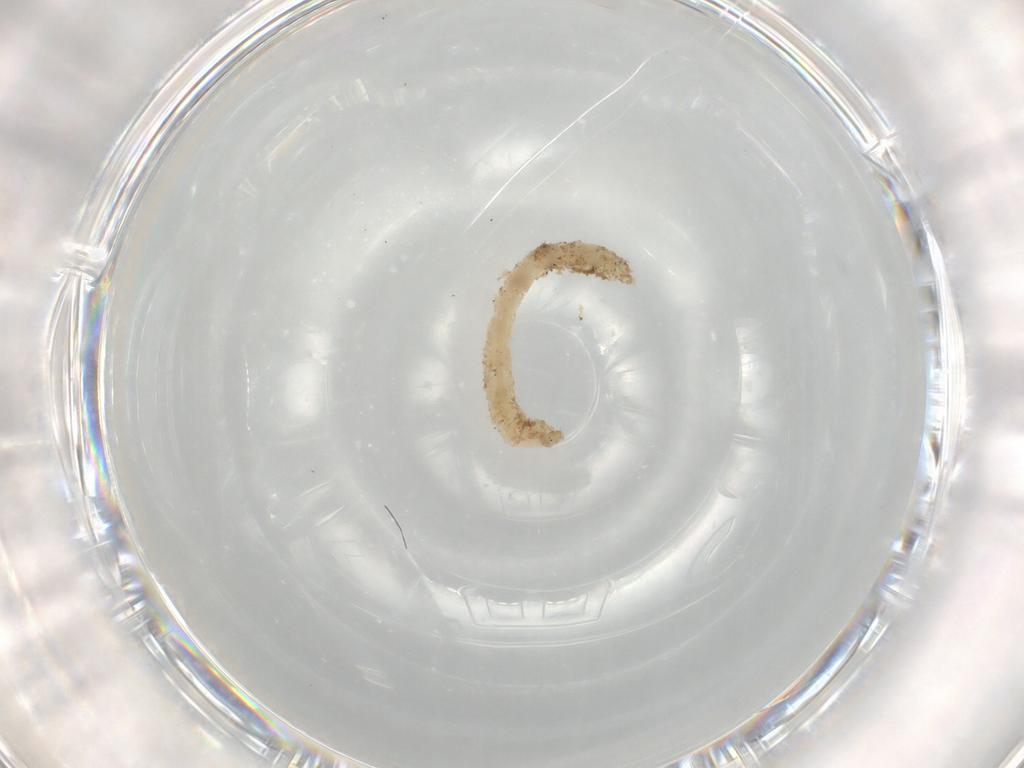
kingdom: Animalia
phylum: Arthropoda
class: Insecta
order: Diptera
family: Chironomidae
